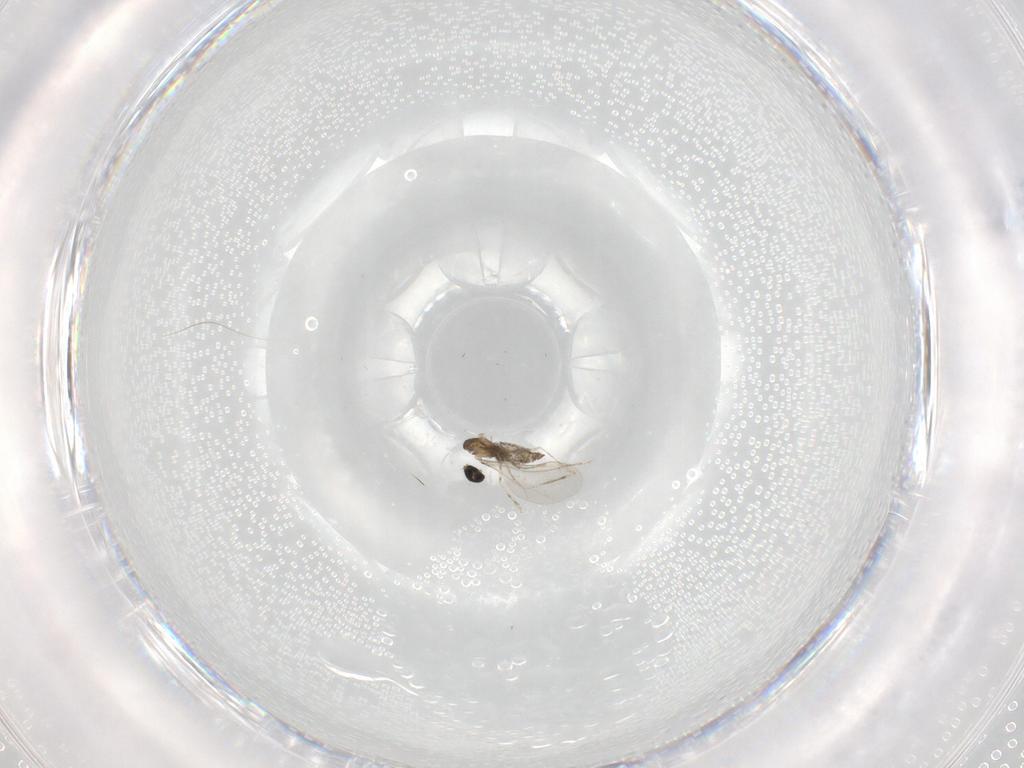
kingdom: Animalia
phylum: Arthropoda
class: Insecta
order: Diptera
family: Cecidomyiidae
